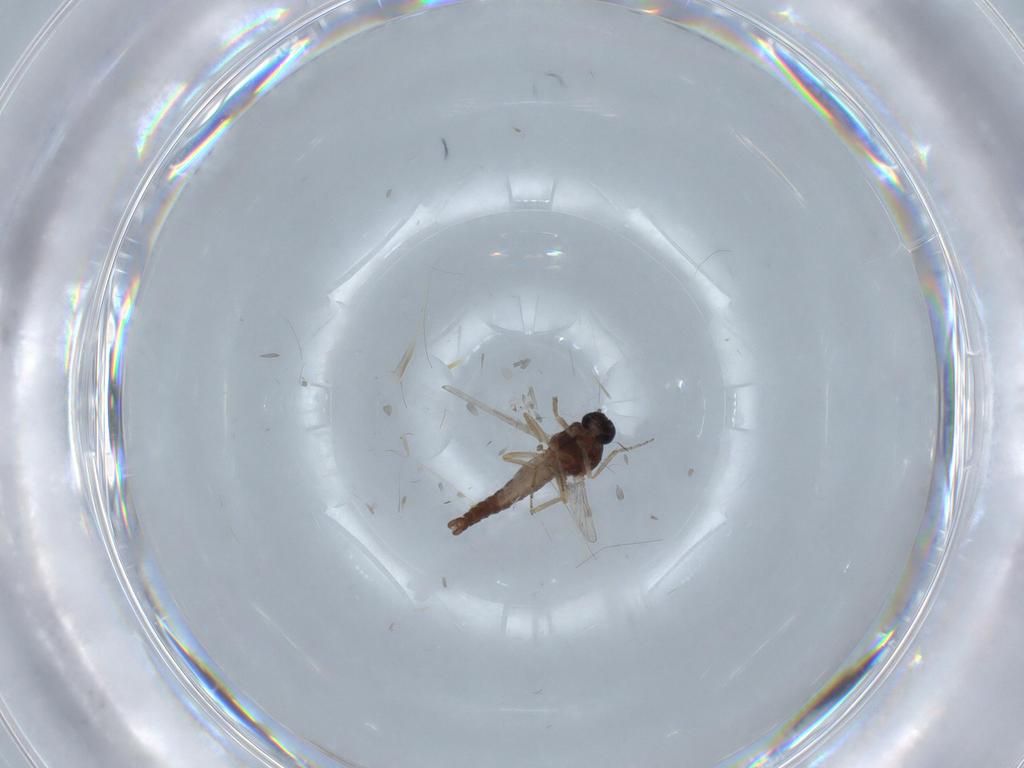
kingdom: Animalia
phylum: Arthropoda
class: Insecta
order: Diptera
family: Ceratopogonidae
